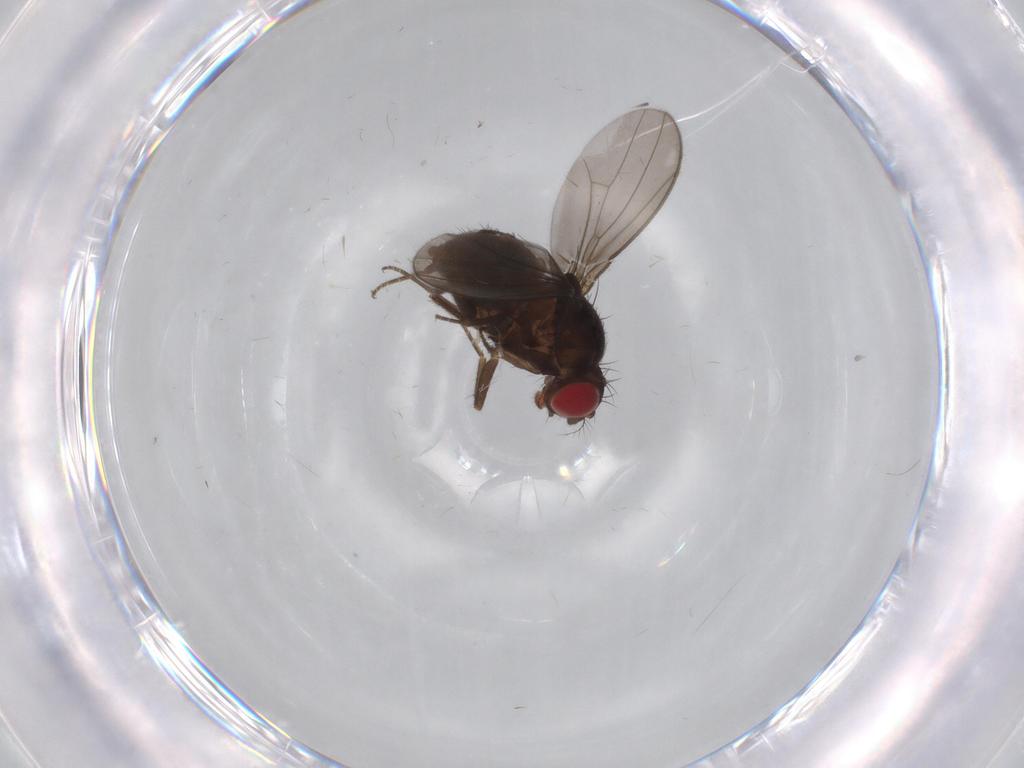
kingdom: Animalia
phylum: Arthropoda
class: Insecta
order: Diptera
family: Drosophilidae
